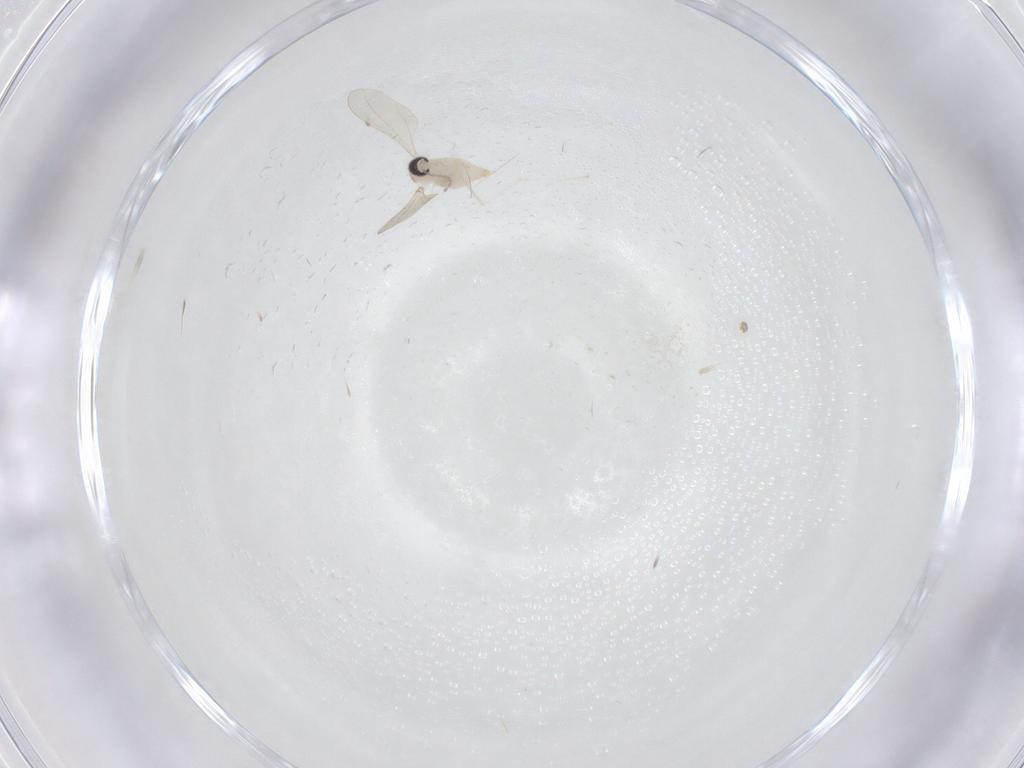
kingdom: Animalia
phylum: Arthropoda
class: Insecta
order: Diptera
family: Cecidomyiidae
